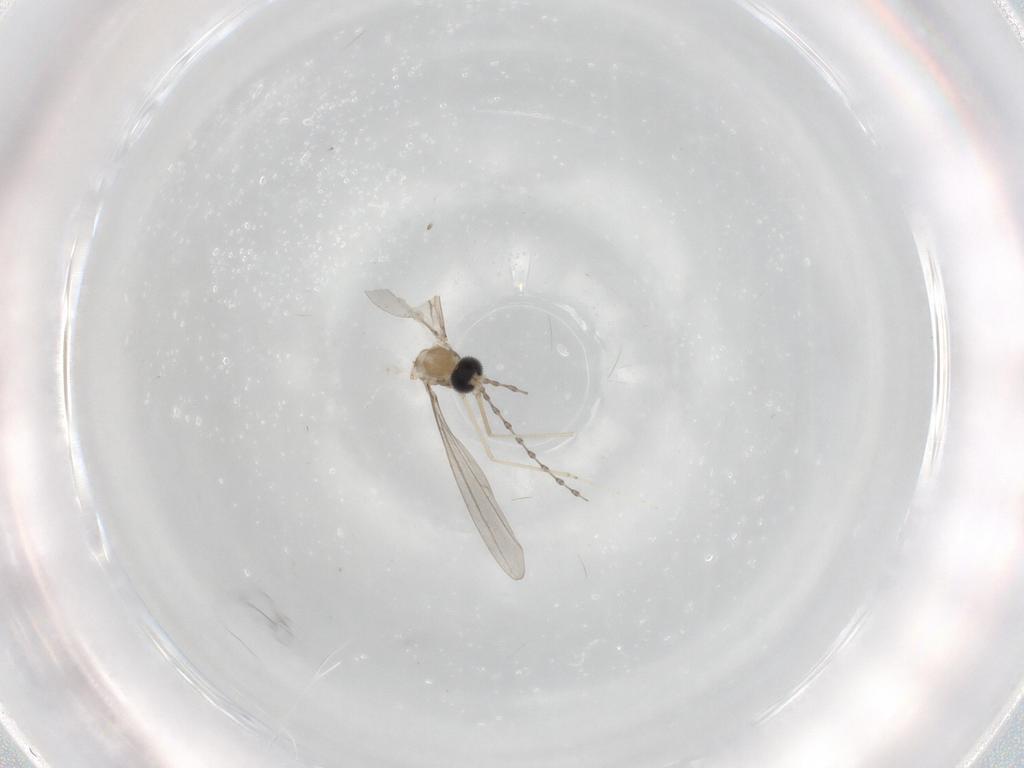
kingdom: Animalia
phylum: Arthropoda
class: Insecta
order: Diptera
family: Cecidomyiidae
